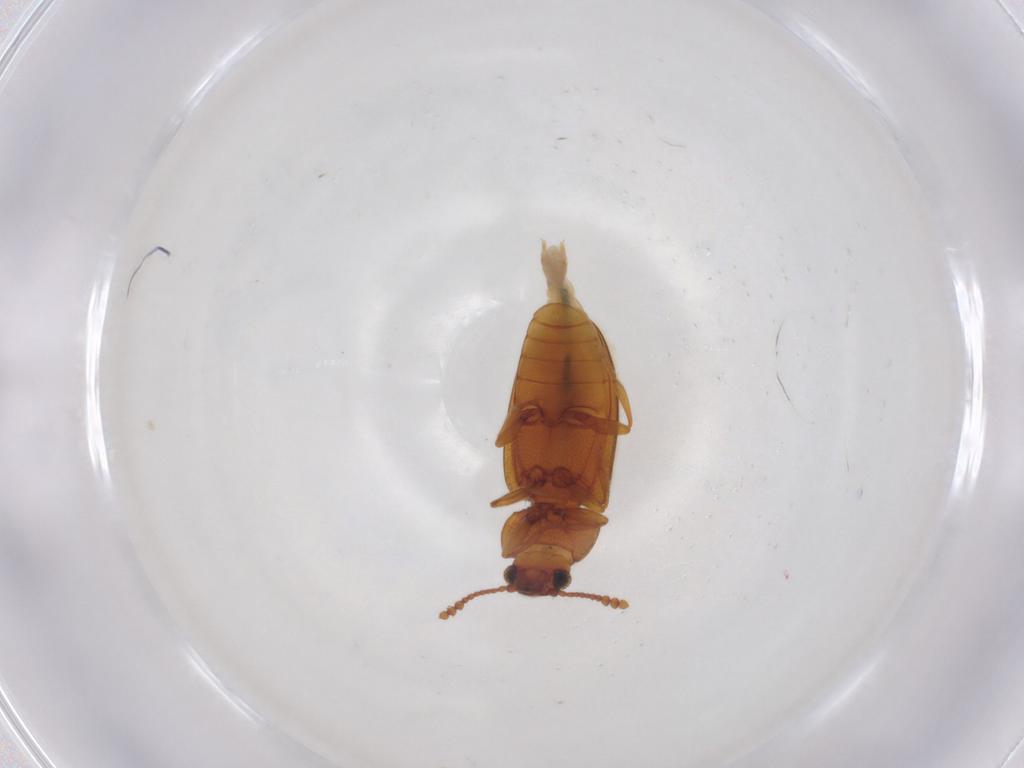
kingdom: Animalia
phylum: Arthropoda
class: Insecta
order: Coleoptera
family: Erotylidae
